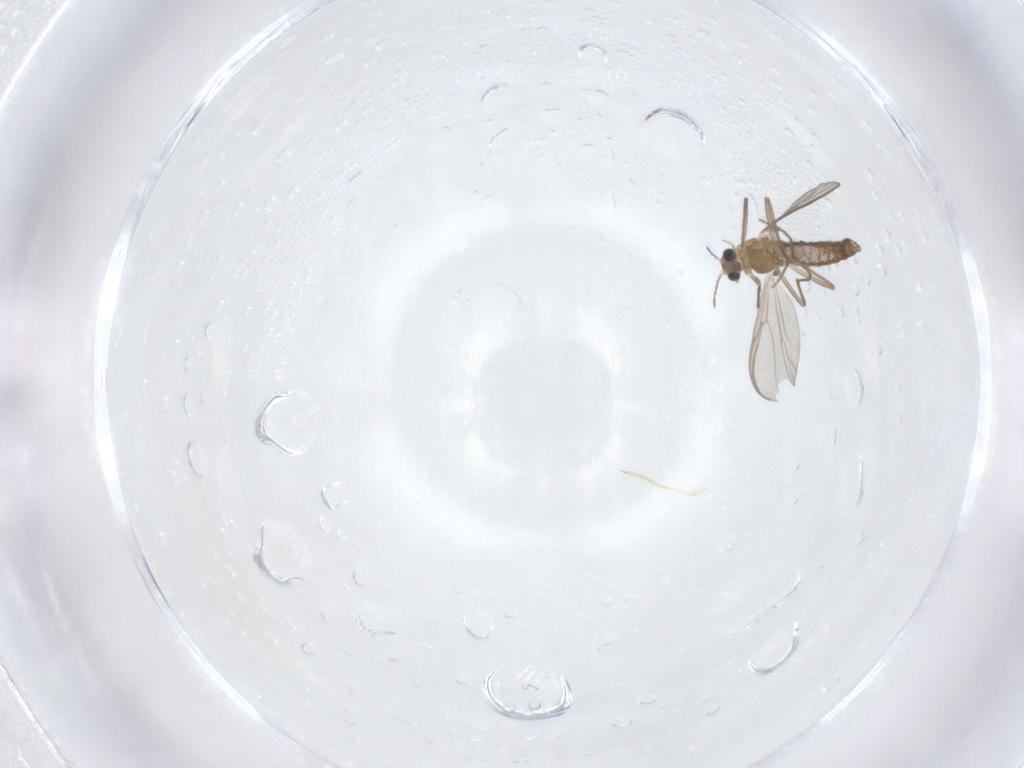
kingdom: Animalia
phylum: Arthropoda
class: Insecta
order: Diptera
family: Chironomidae
